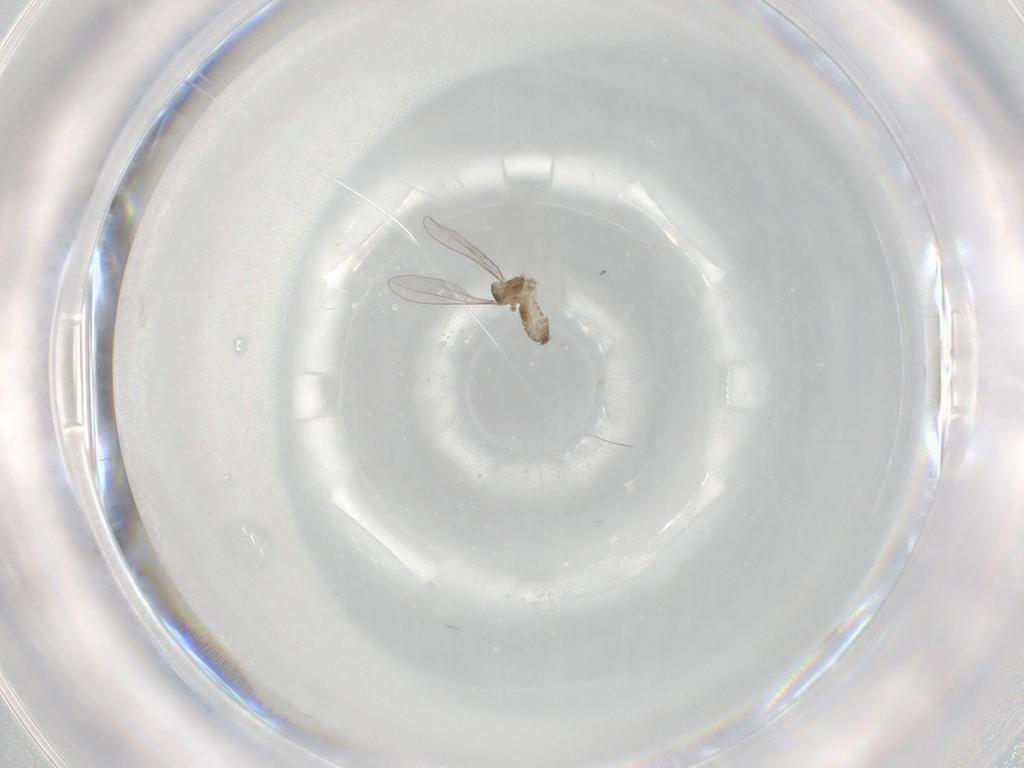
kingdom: Animalia
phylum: Arthropoda
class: Insecta
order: Diptera
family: Cecidomyiidae
